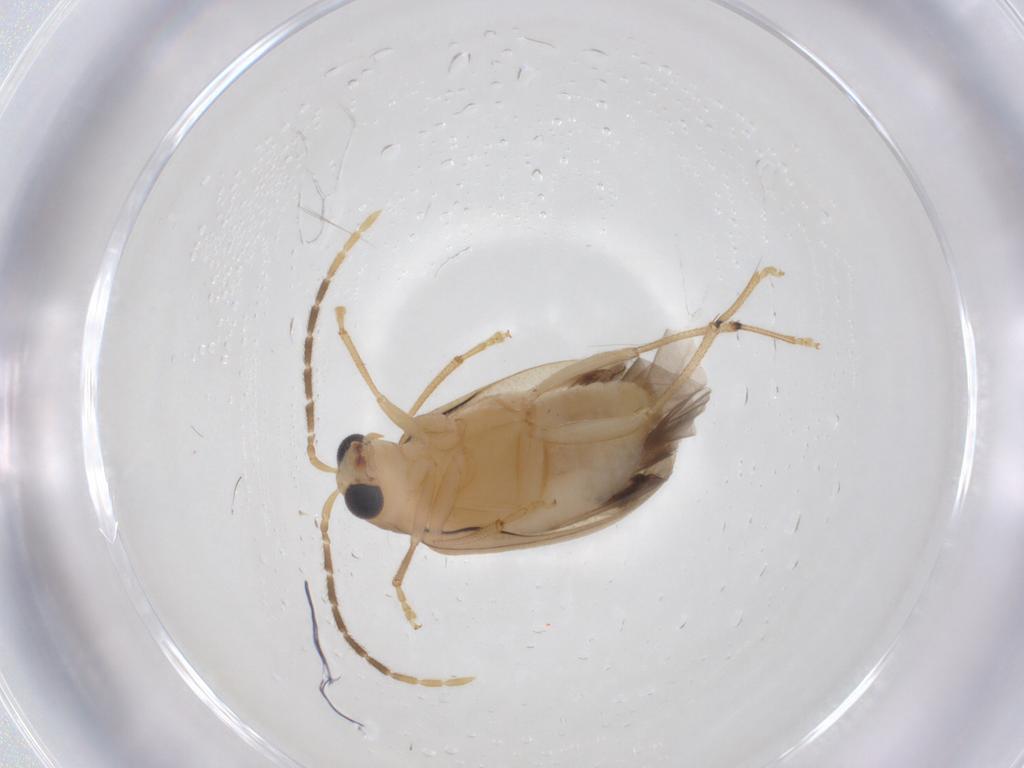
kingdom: Animalia
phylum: Arthropoda
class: Insecta
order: Coleoptera
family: Chrysomelidae
